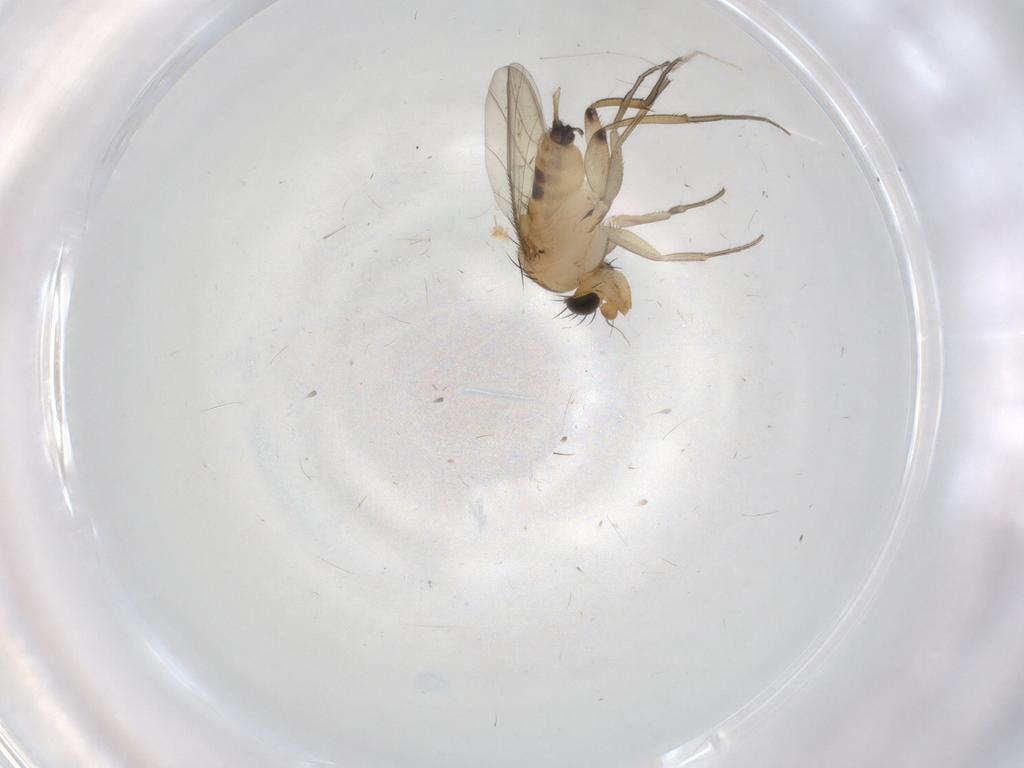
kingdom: Animalia
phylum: Arthropoda
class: Insecta
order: Diptera
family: Phoridae
